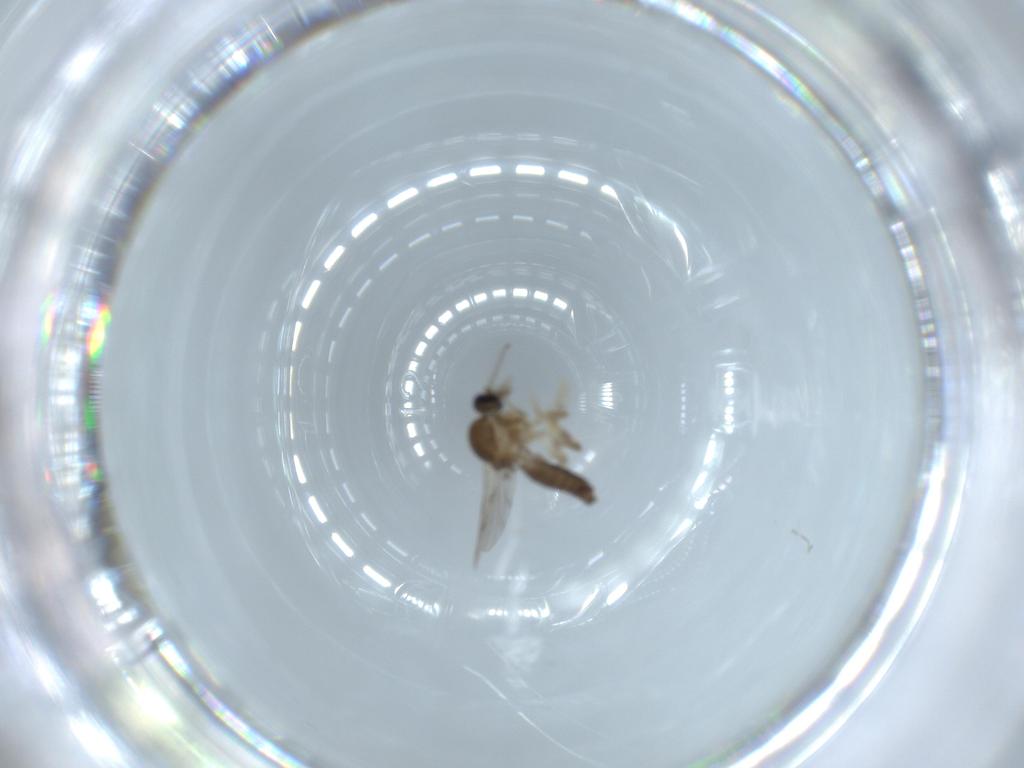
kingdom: Animalia
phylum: Arthropoda
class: Insecta
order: Diptera
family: Ceratopogonidae
